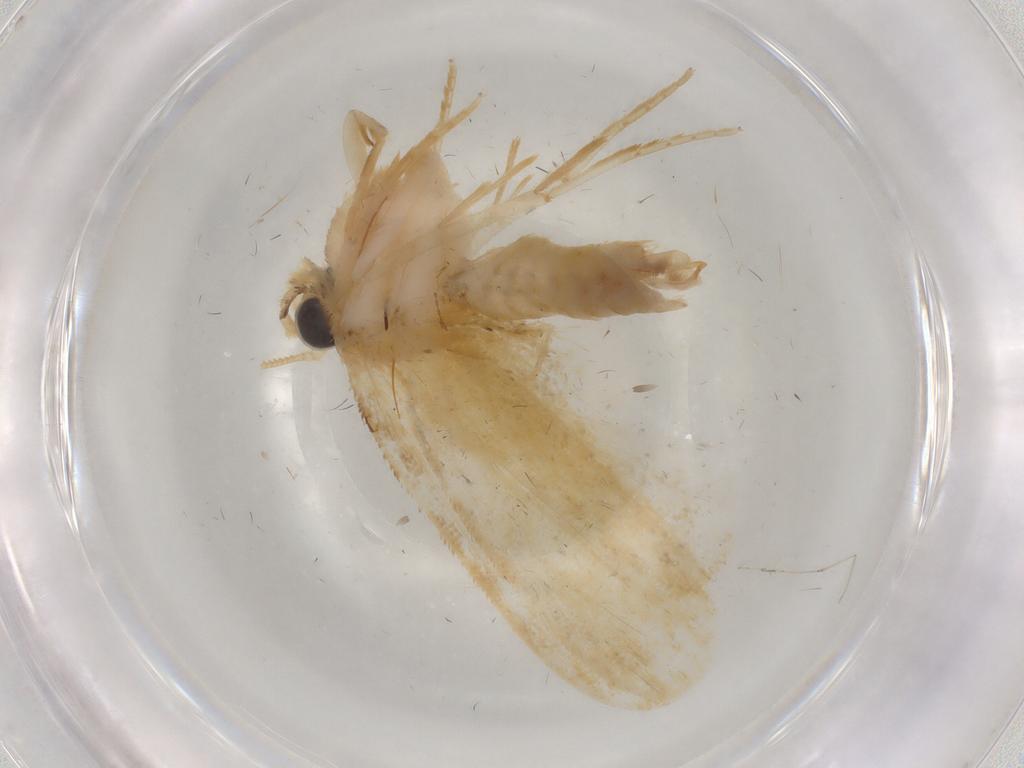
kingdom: Animalia
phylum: Arthropoda
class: Insecta
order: Lepidoptera
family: Psychidae
